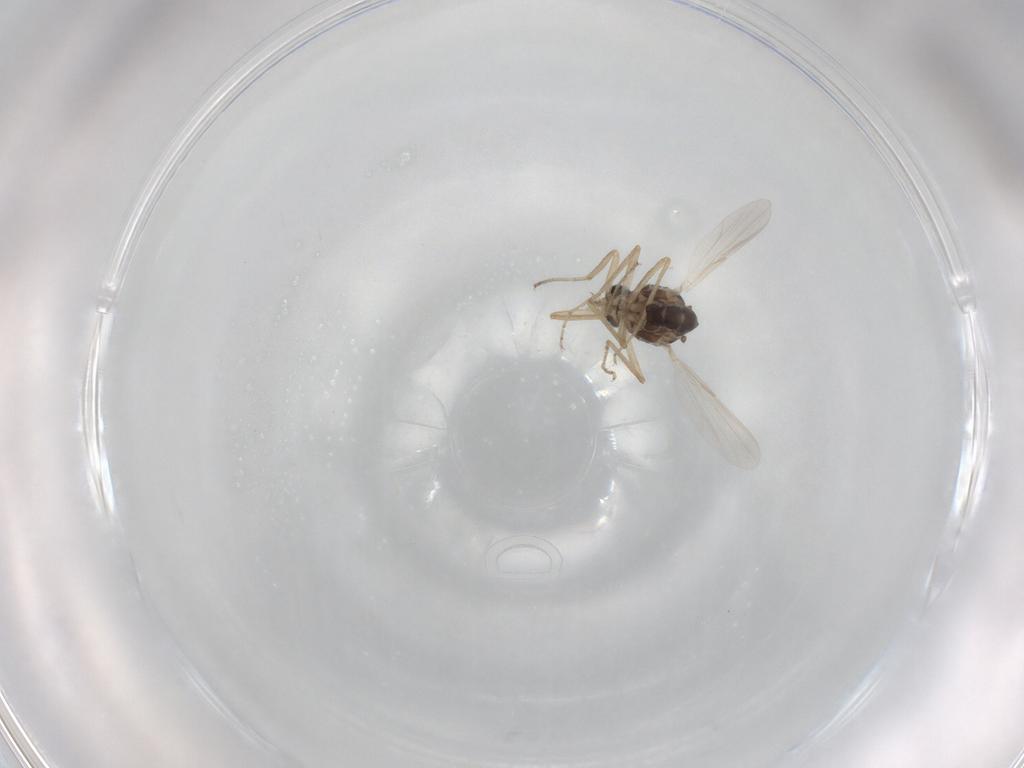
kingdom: Animalia
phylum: Arthropoda
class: Insecta
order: Diptera
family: Ceratopogonidae
